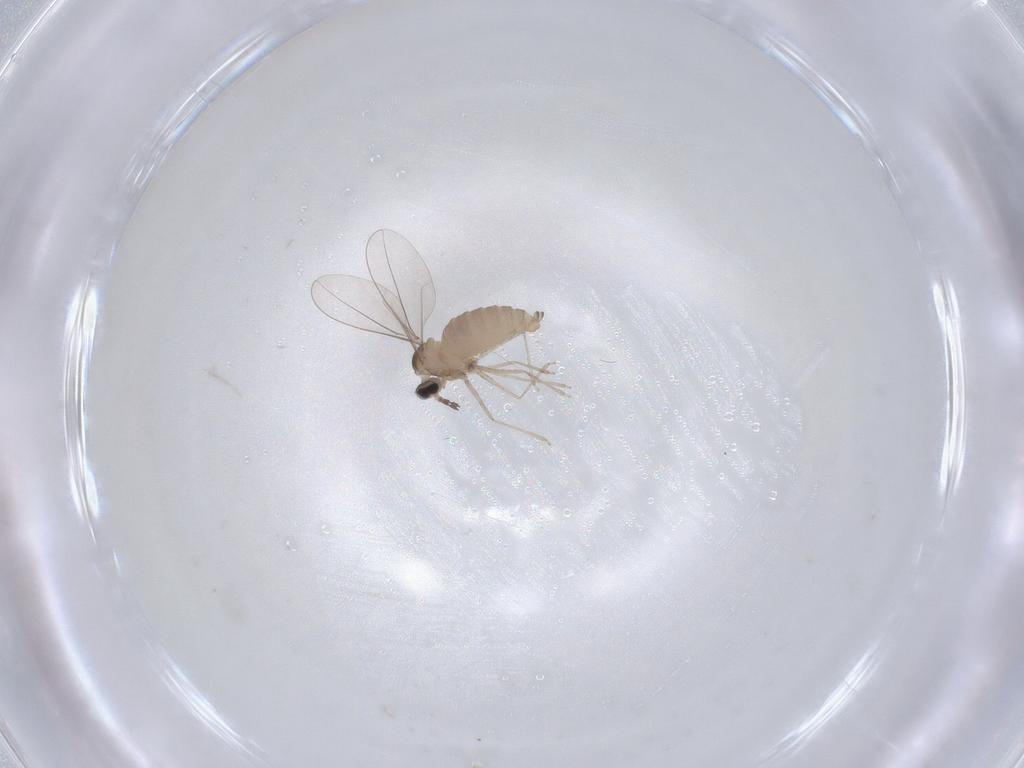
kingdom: Animalia
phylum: Arthropoda
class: Insecta
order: Diptera
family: Cecidomyiidae
